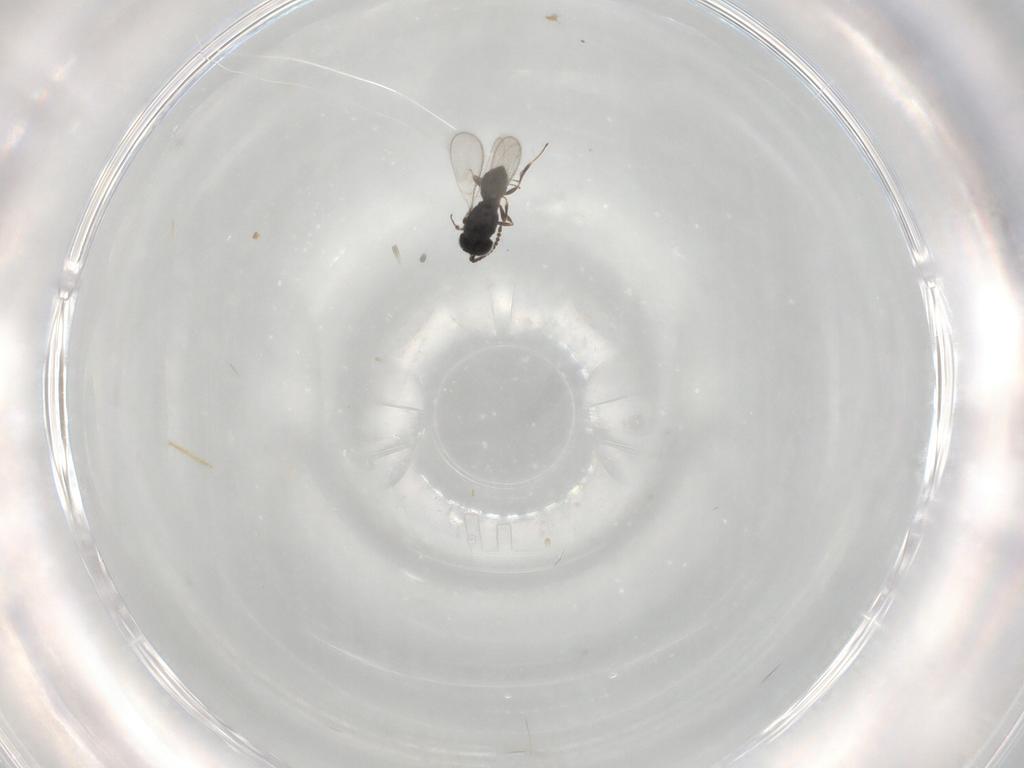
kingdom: Animalia
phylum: Arthropoda
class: Insecta
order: Hymenoptera
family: Scelionidae
